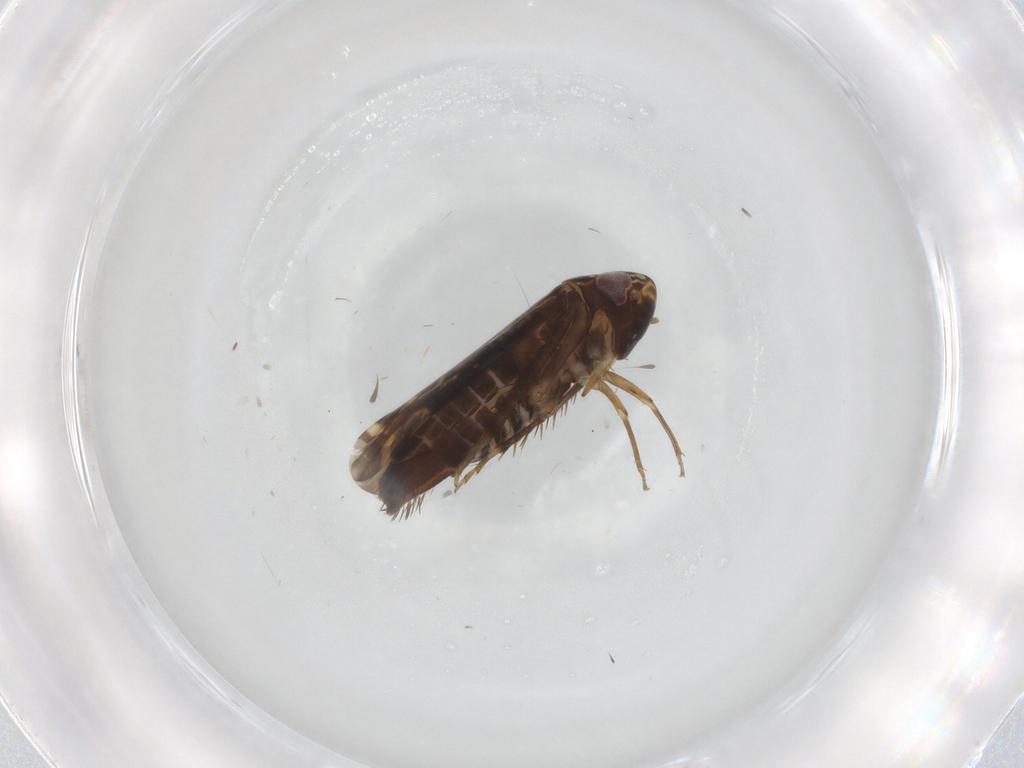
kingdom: Animalia
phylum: Arthropoda
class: Insecta
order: Hemiptera
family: Cicadellidae
